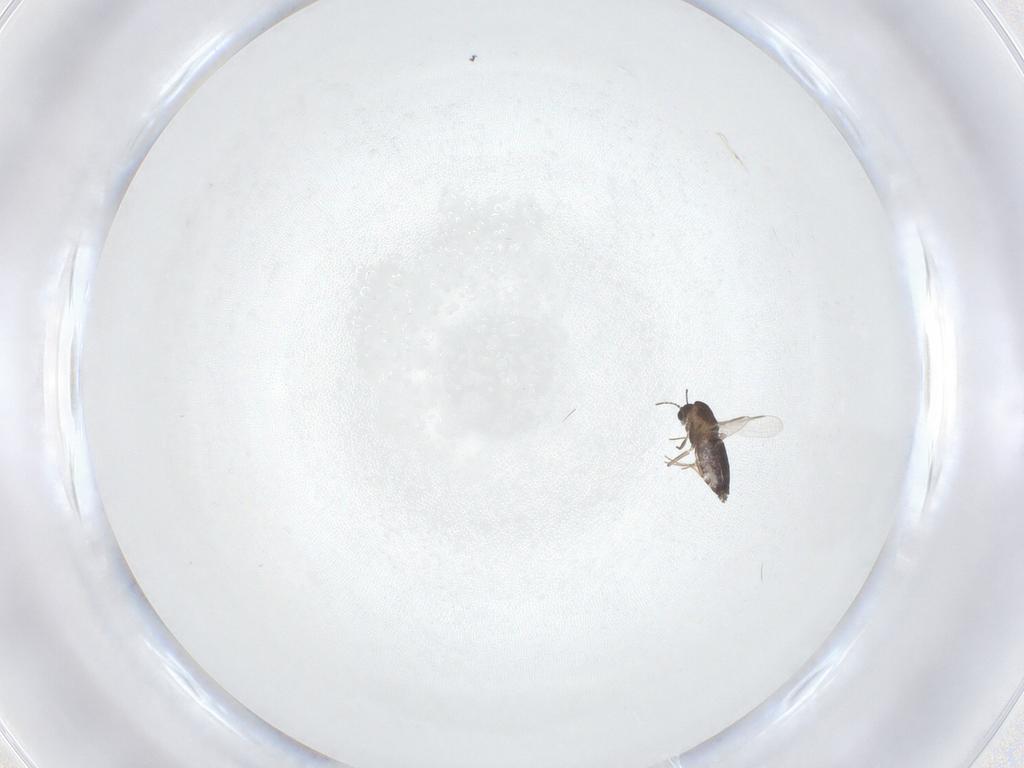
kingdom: Animalia
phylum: Arthropoda
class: Insecta
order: Diptera
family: Chironomidae
